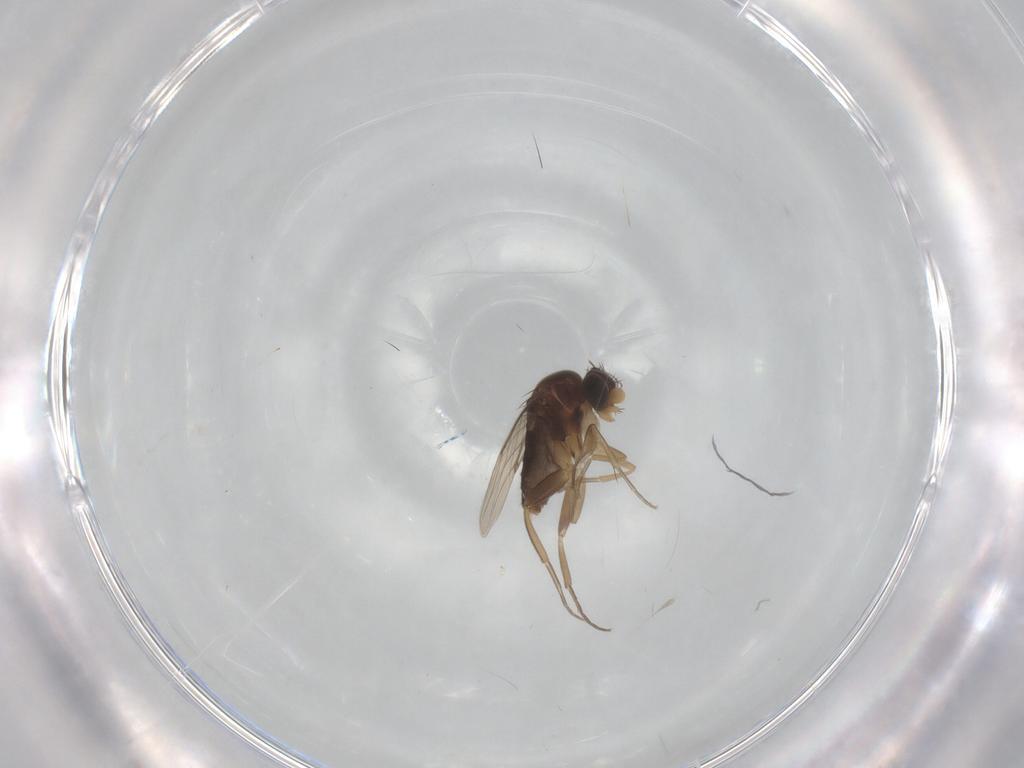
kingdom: Animalia
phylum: Arthropoda
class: Insecta
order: Diptera
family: Phoridae
